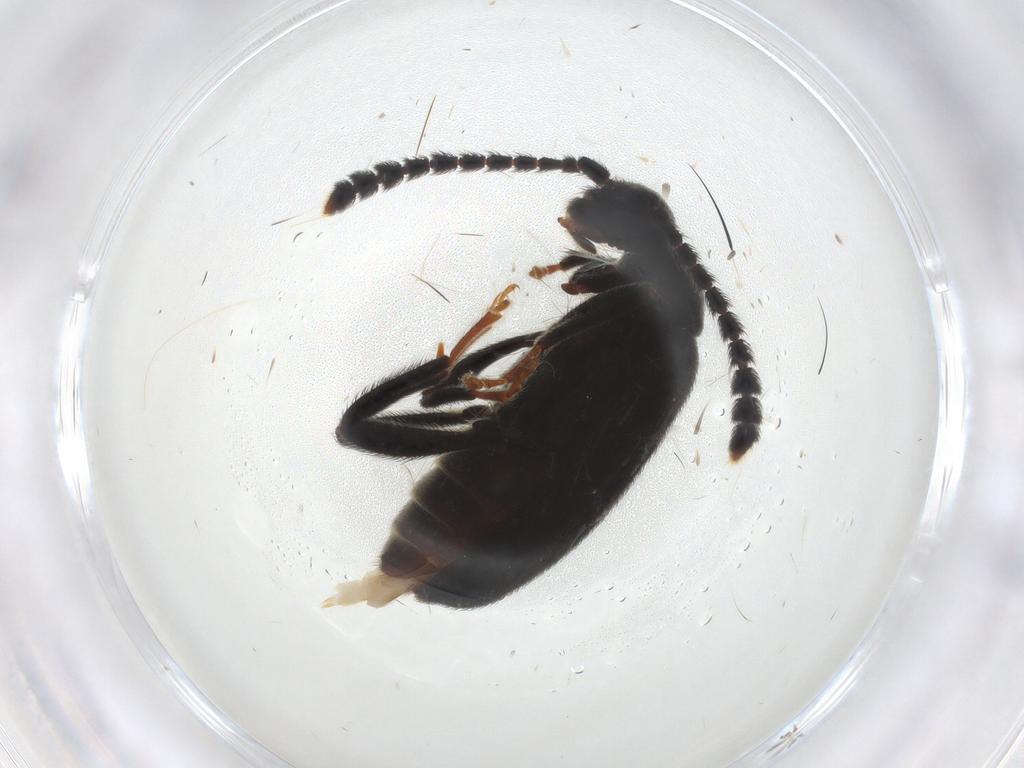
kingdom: Animalia
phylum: Arthropoda
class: Insecta
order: Coleoptera
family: Aderidae
